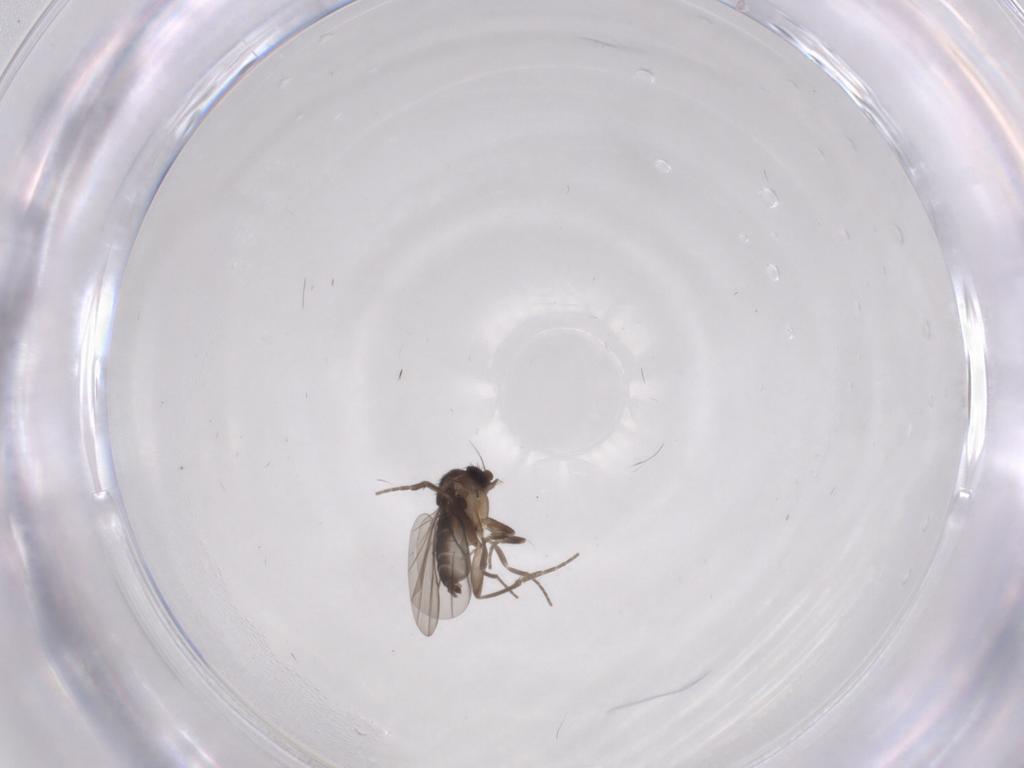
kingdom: Animalia
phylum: Arthropoda
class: Insecta
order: Diptera
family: Phoridae
